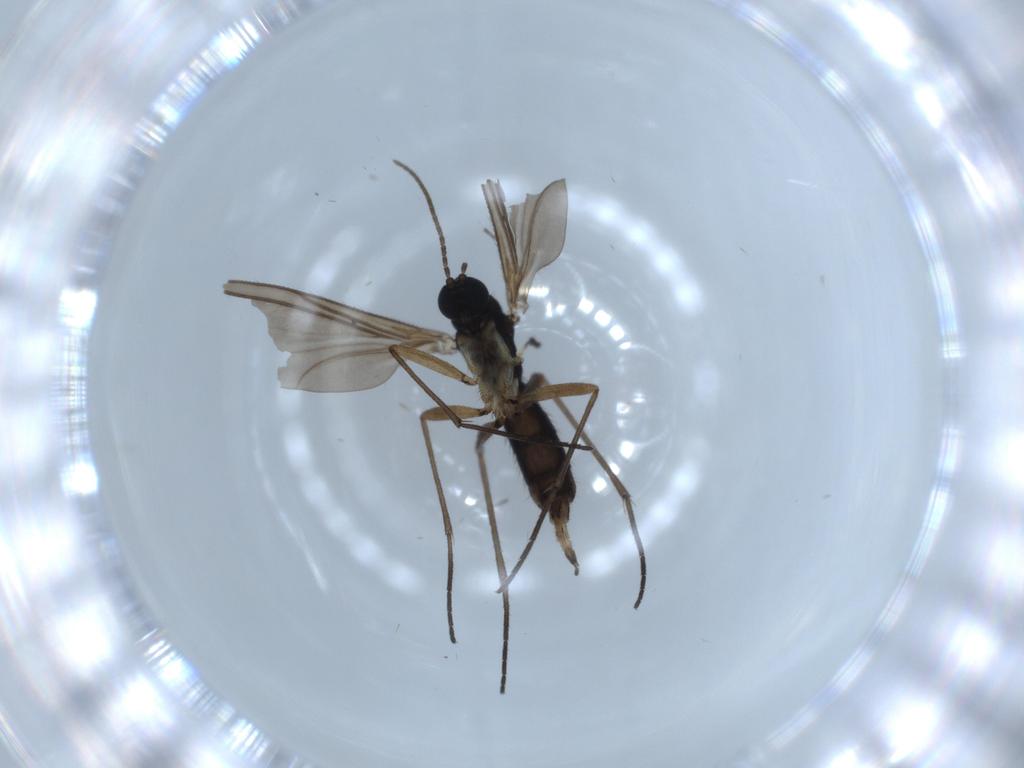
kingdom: Animalia
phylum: Arthropoda
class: Insecta
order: Diptera
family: Sciaridae
